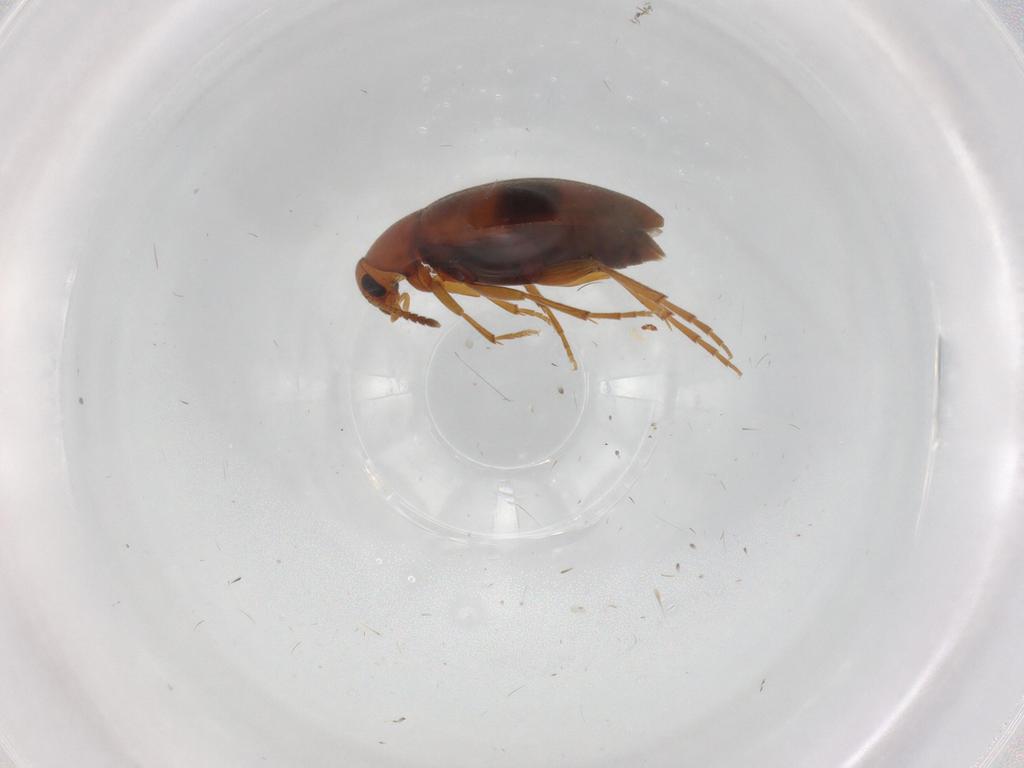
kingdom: Animalia
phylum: Arthropoda
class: Insecta
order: Coleoptera
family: Scraptiidae
